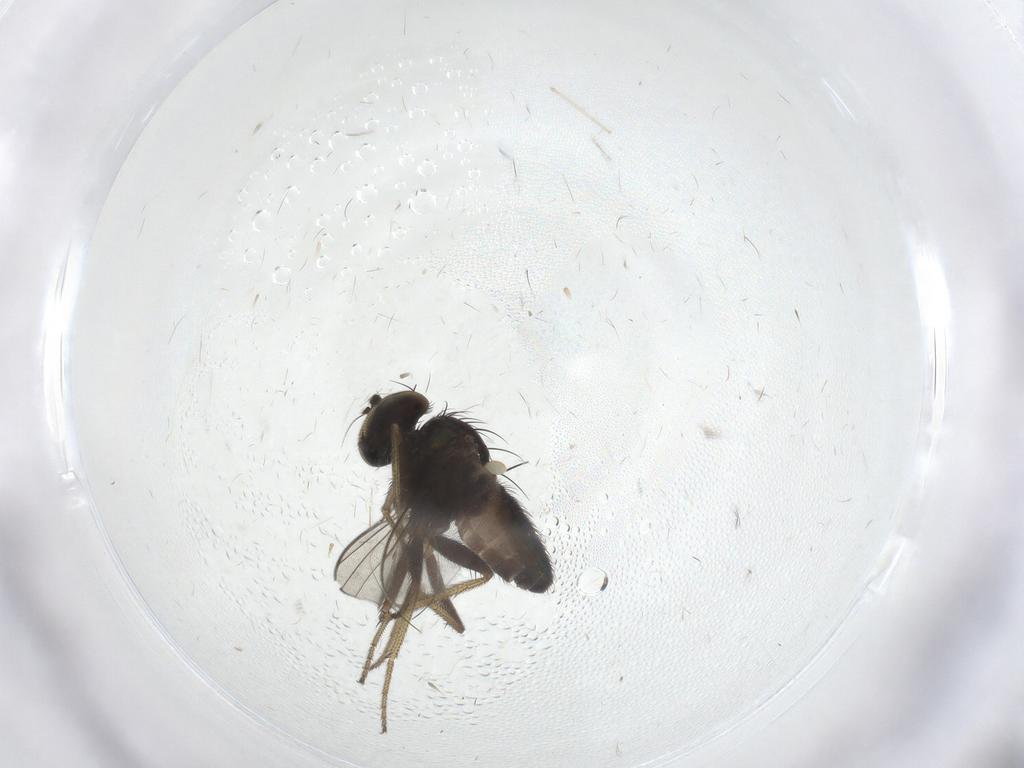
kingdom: Animalia
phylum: Arthropoda
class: Insecta
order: Diptera
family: Dolichopodidae
